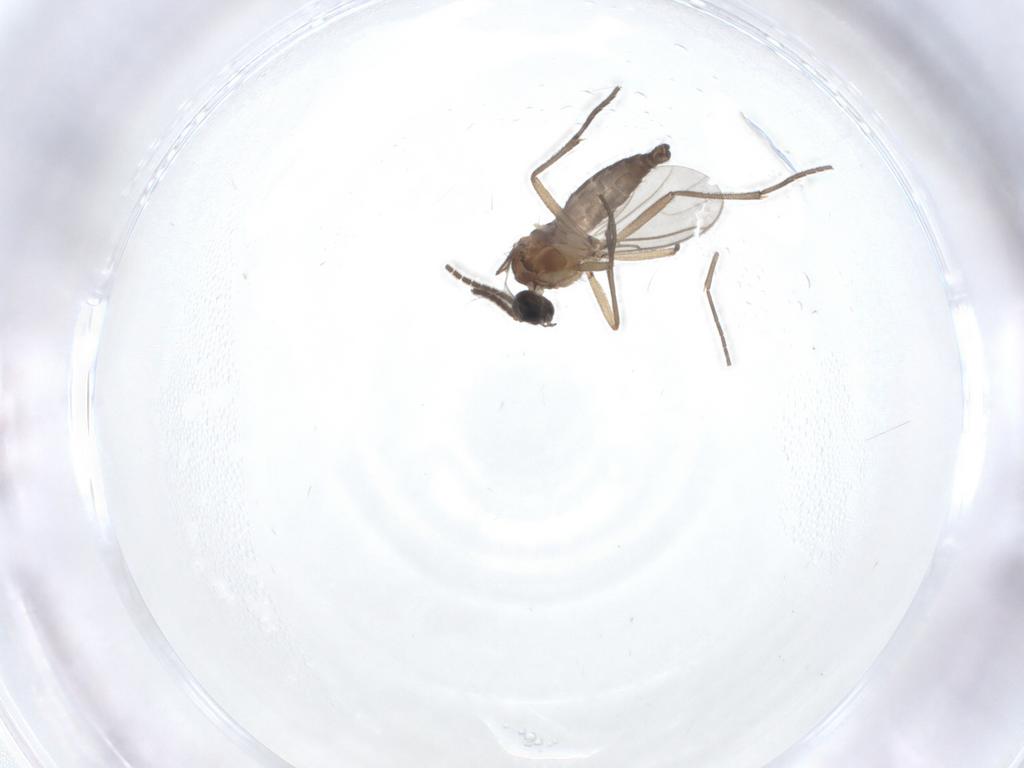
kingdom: Animalia
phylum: Arthropoda
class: Insecta
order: Diptera
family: Sciaridae
